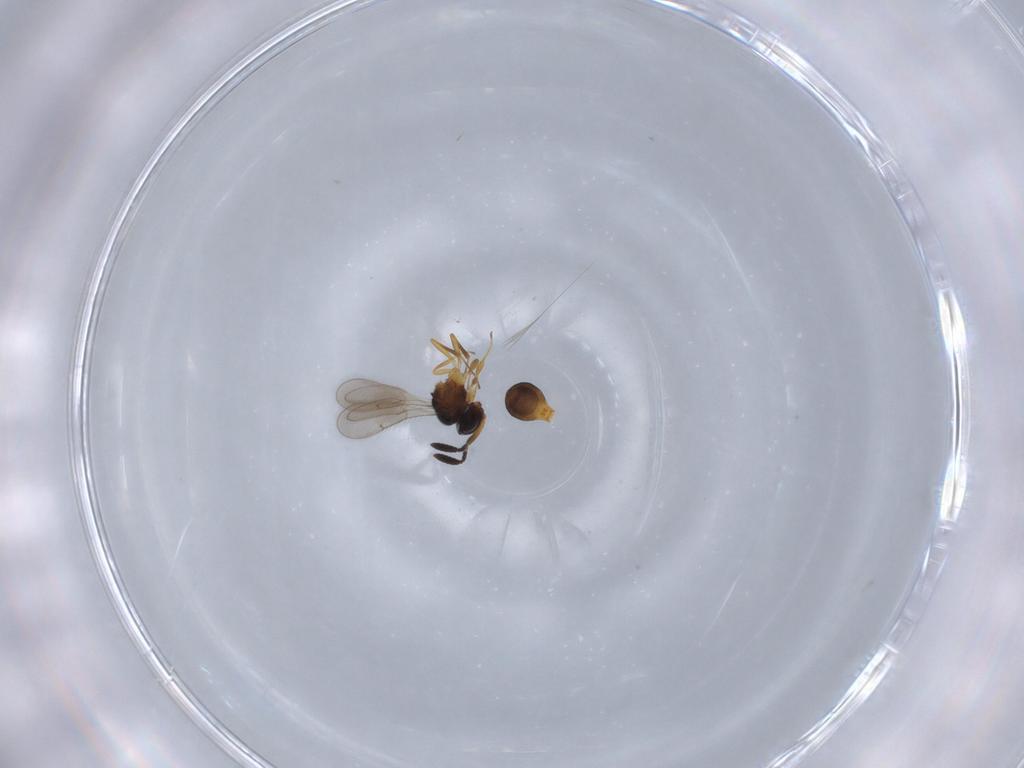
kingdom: Animalia
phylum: Arthropoda
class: Insecta
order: Hymenoptera
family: Scelionidae
